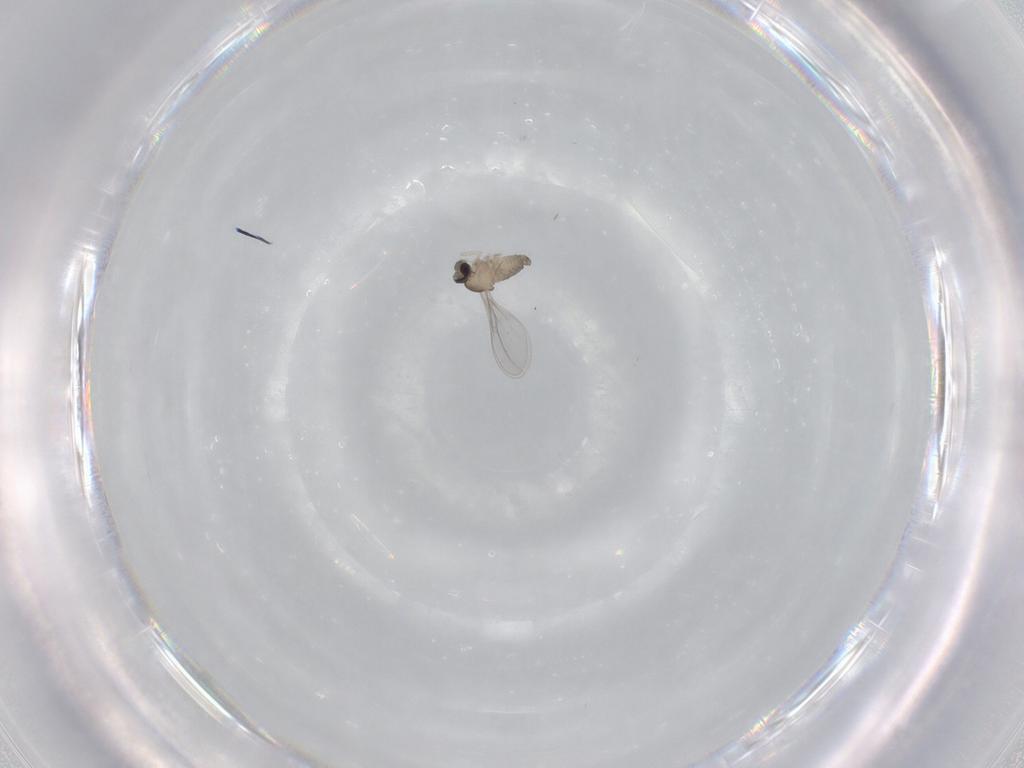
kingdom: Animalia
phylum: Arthropoda
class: Insecta
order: Diptera
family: Cecidomyiidae
